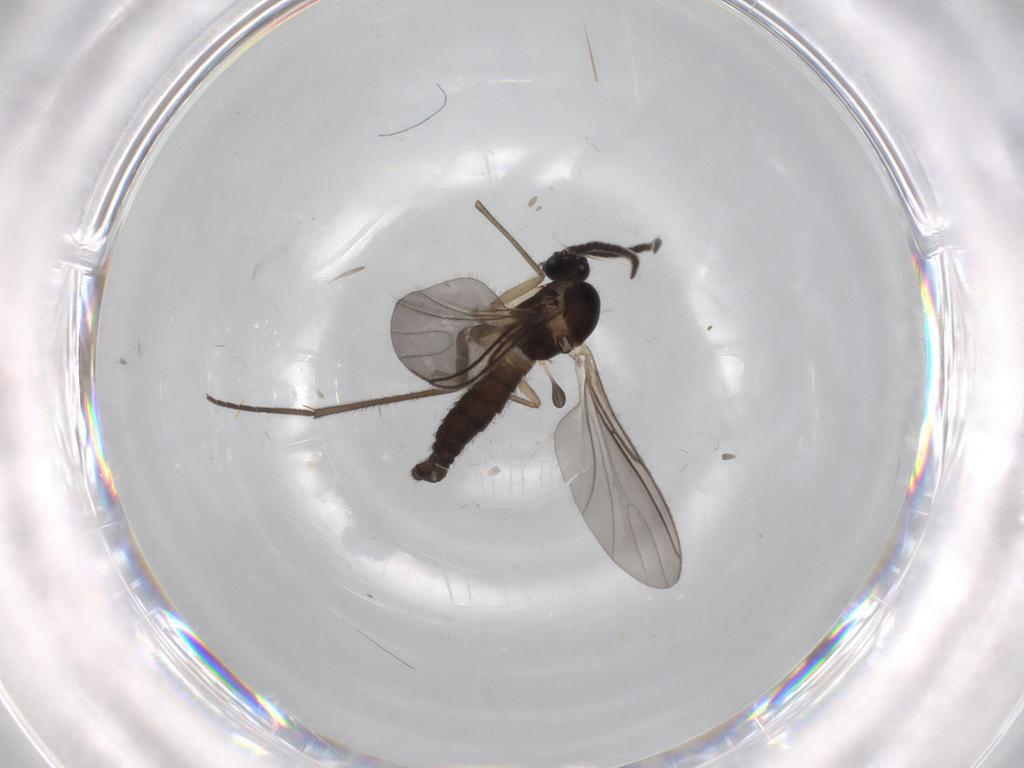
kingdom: Animalia
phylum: Arthropoda
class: Insecta
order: Diptera
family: Sciaridae
